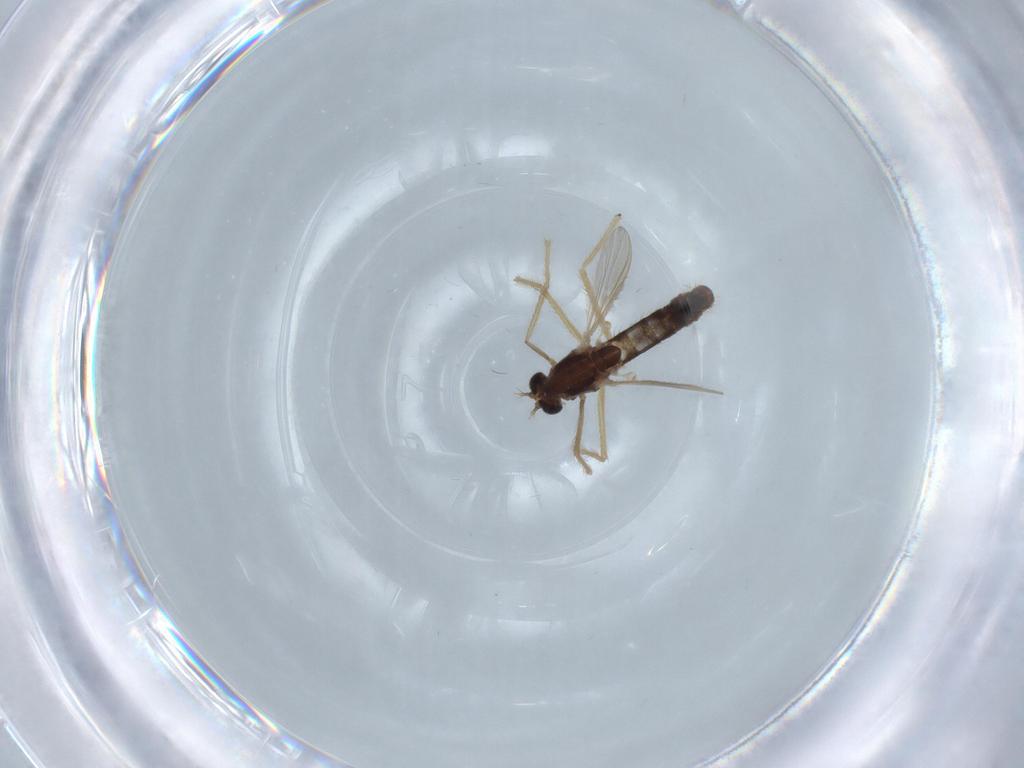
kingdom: Animalia
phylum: Arthropoda
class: Insecta
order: Diptera
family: Chironomidae
